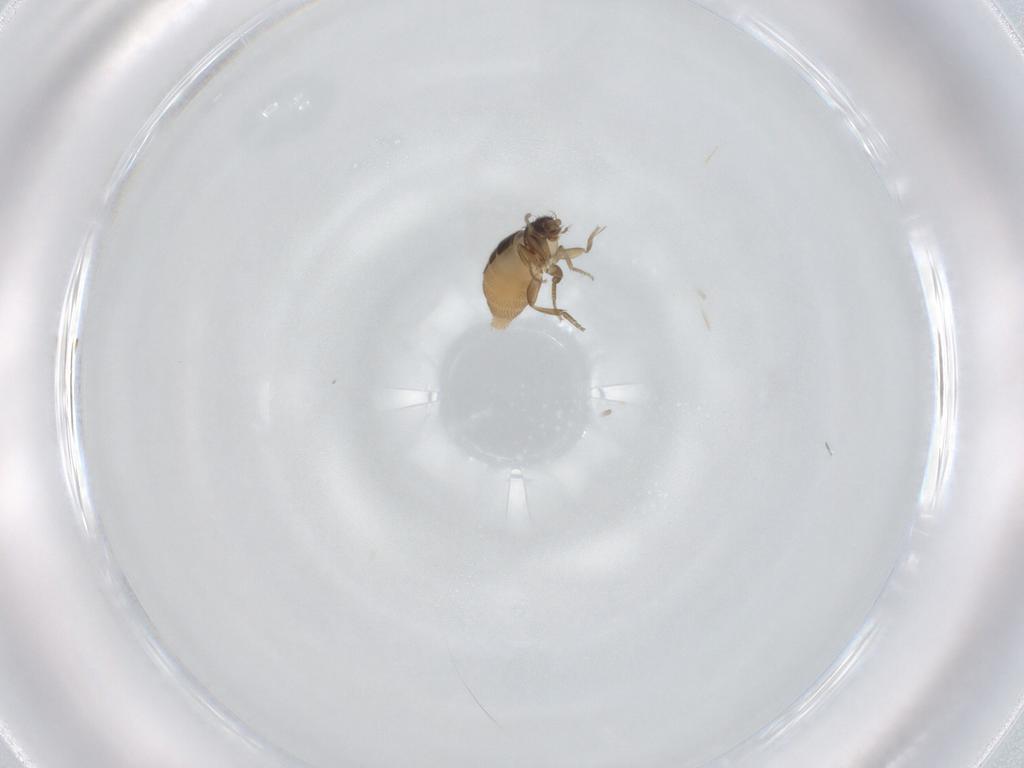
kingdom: Animalia
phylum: Arthropoda
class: Insecta
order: Diptera
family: Phoridae
